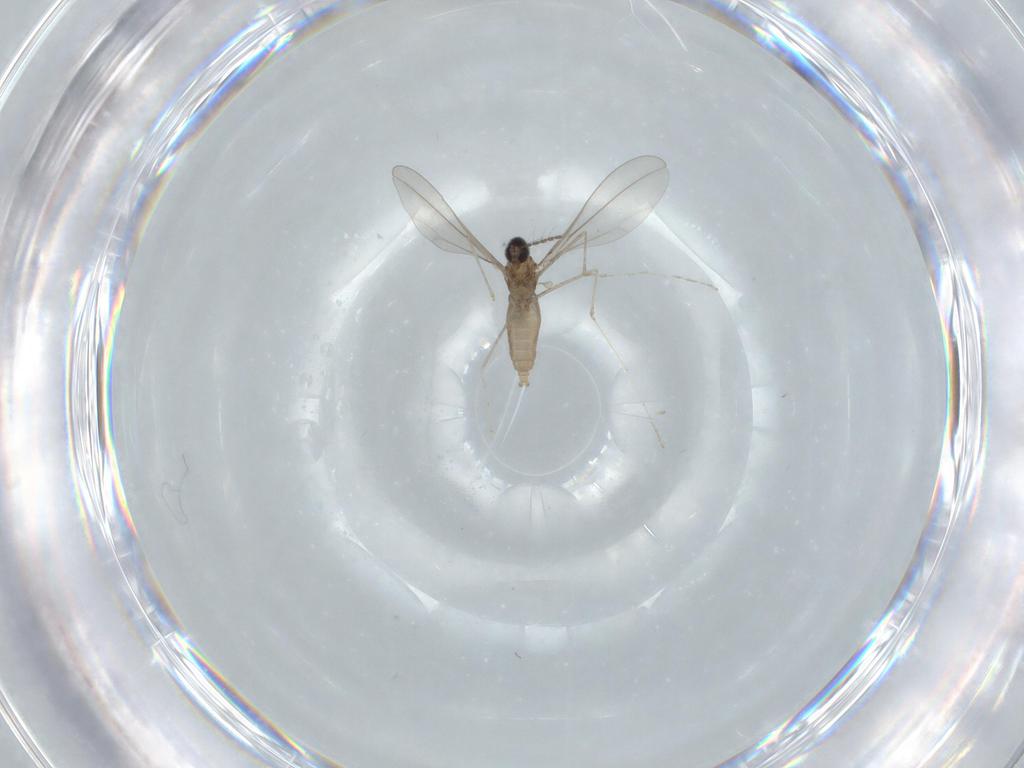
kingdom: Animalia
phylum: Arthropoda
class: Insecta
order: Diptera
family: Cecidomyiidae
